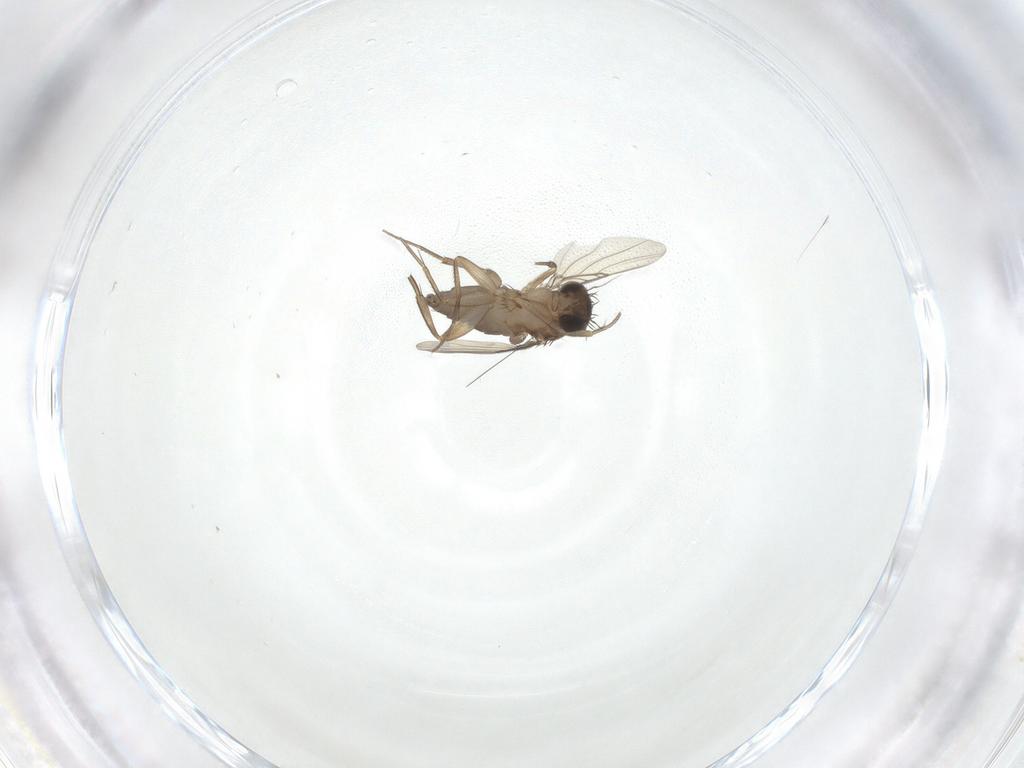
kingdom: Animalia
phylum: Arthropoda
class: Insecta
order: Diptera
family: Phoridae
